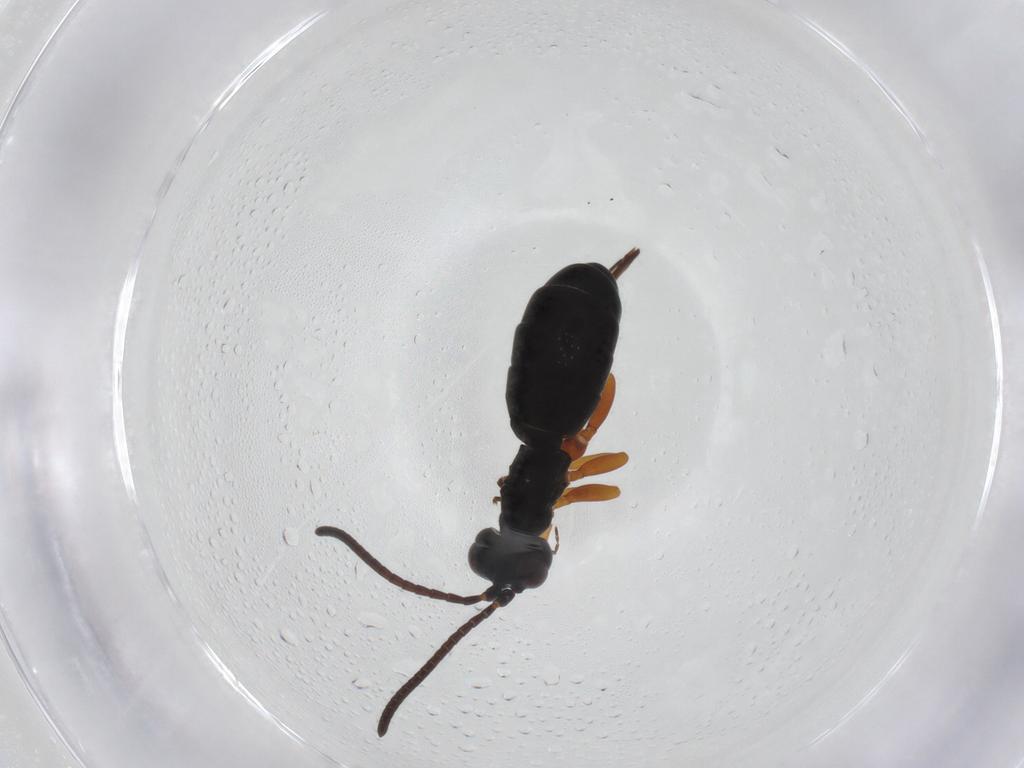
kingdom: Animalia
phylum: Arthropoda
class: Insecta
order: Hymenoptera
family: Ichneumonidae
